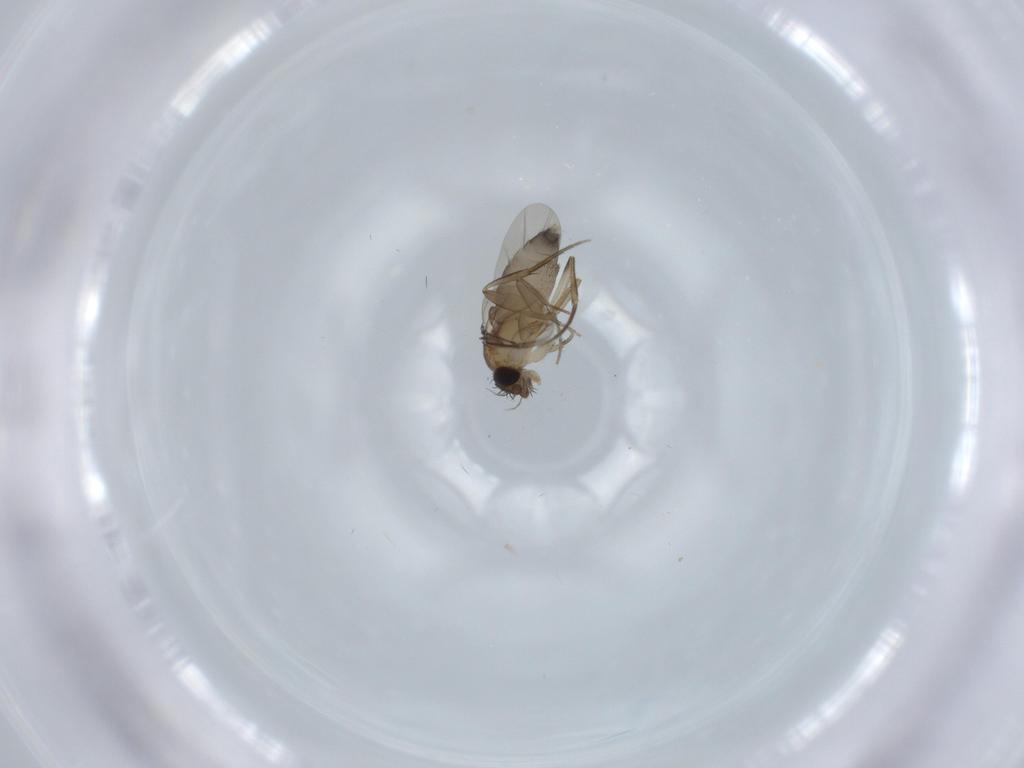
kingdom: Animalia
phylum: Arthropoda
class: Insecta
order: Diptera
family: Phoridae
